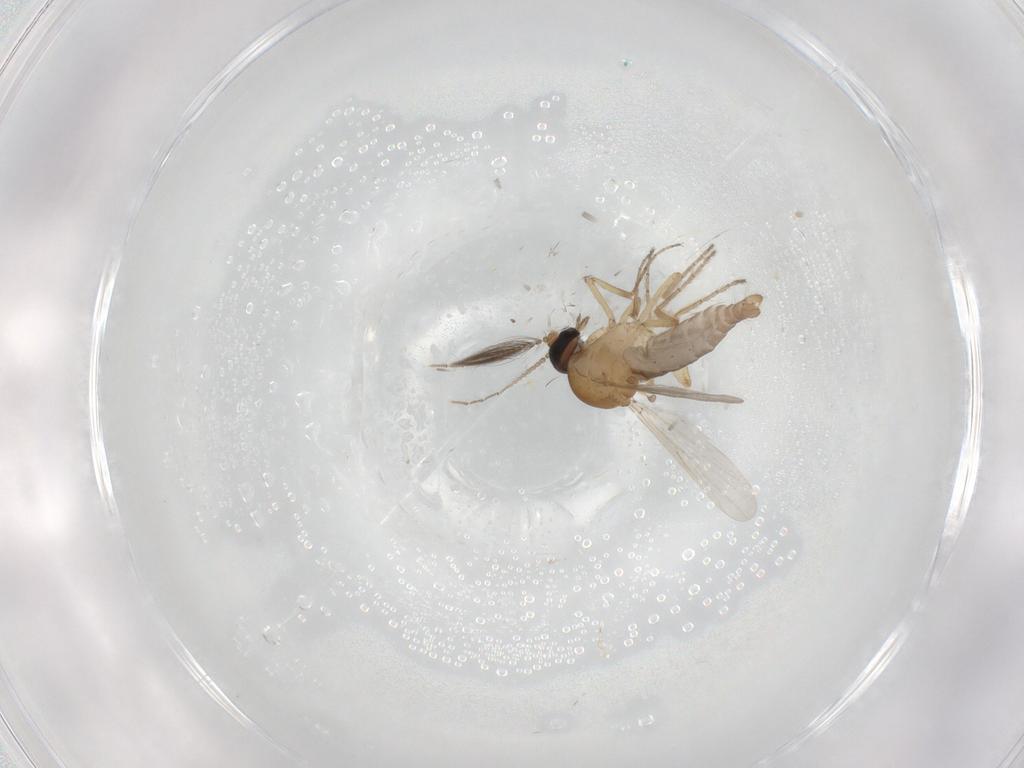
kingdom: Animalia
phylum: Arthropoda
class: Insecta
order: Diptera
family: Ceratopogonidae
